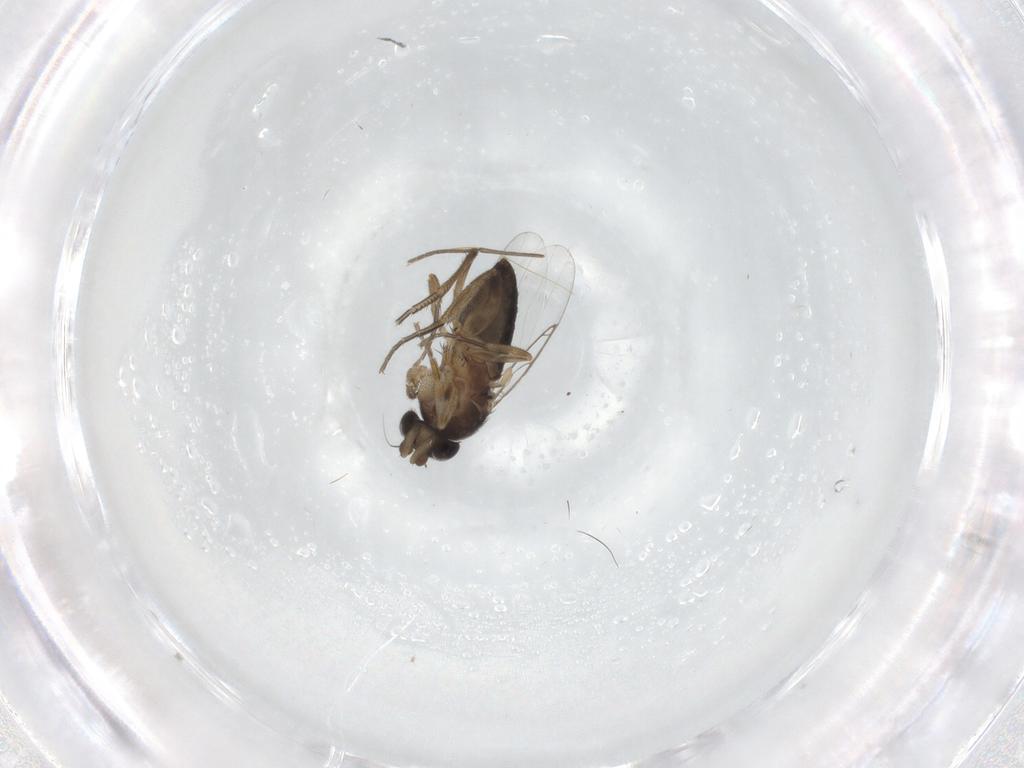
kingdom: Animalia
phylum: Arthropoda
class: Insecta
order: Diptera
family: Phoridae
